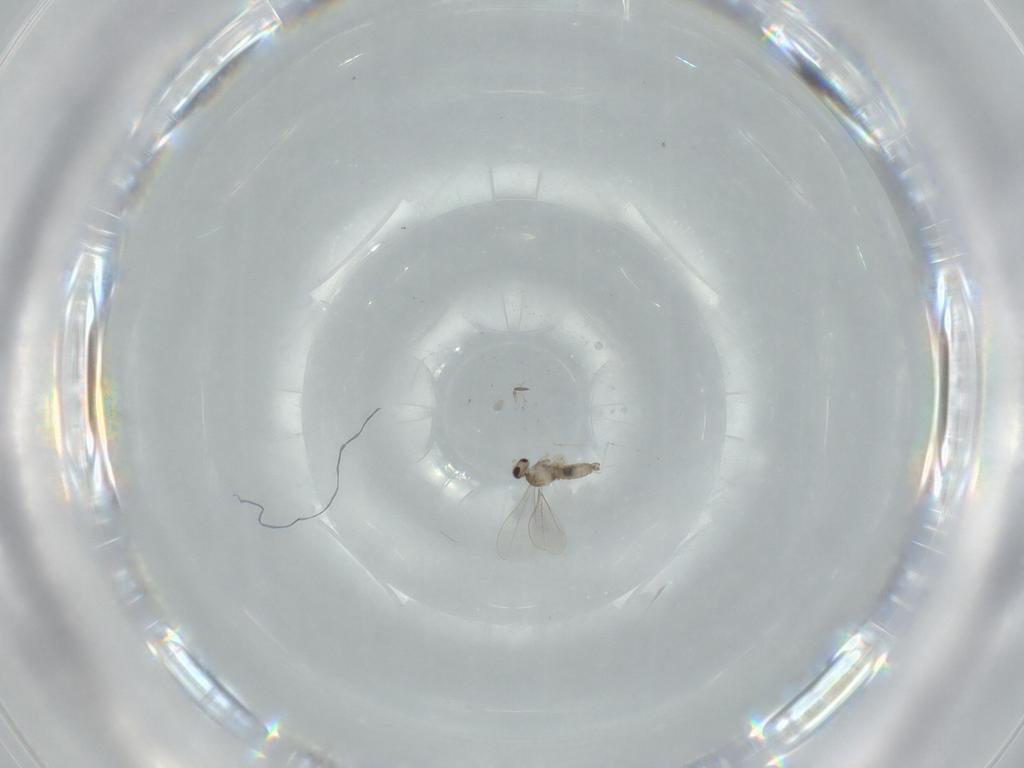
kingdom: Animalia
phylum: Arthropoda
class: Insecta
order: Diptera
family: Cecidomyiidae
